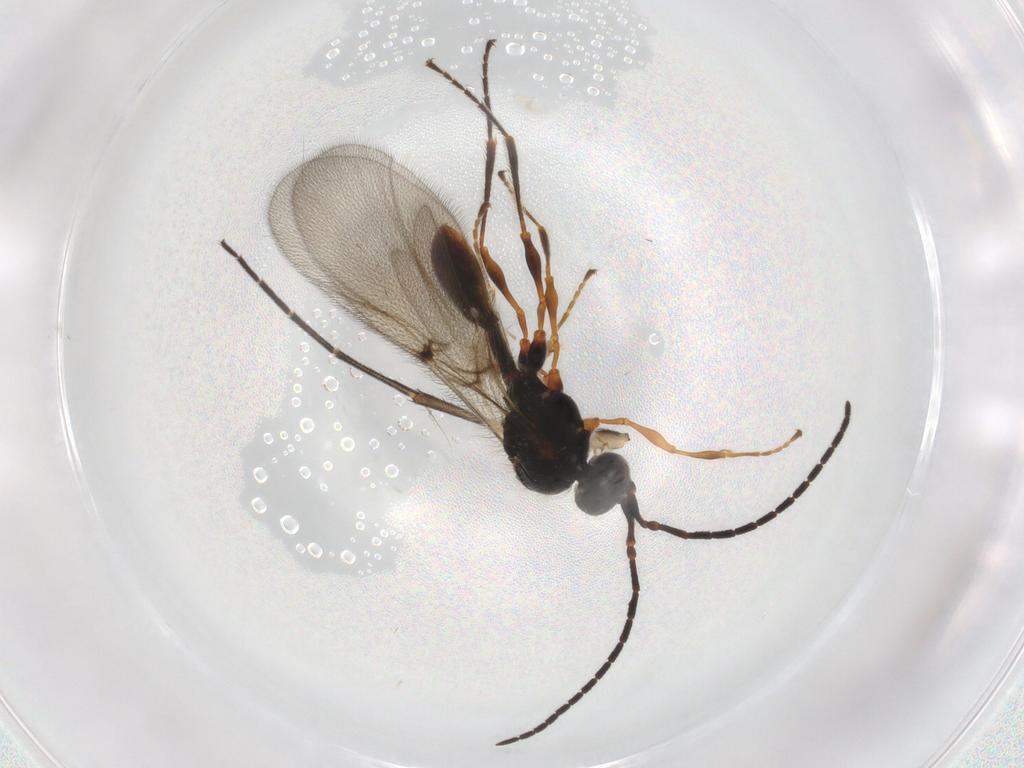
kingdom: Animalia
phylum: Arthropoda
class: Insecta
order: Hymenoptera
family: Diapriidae
